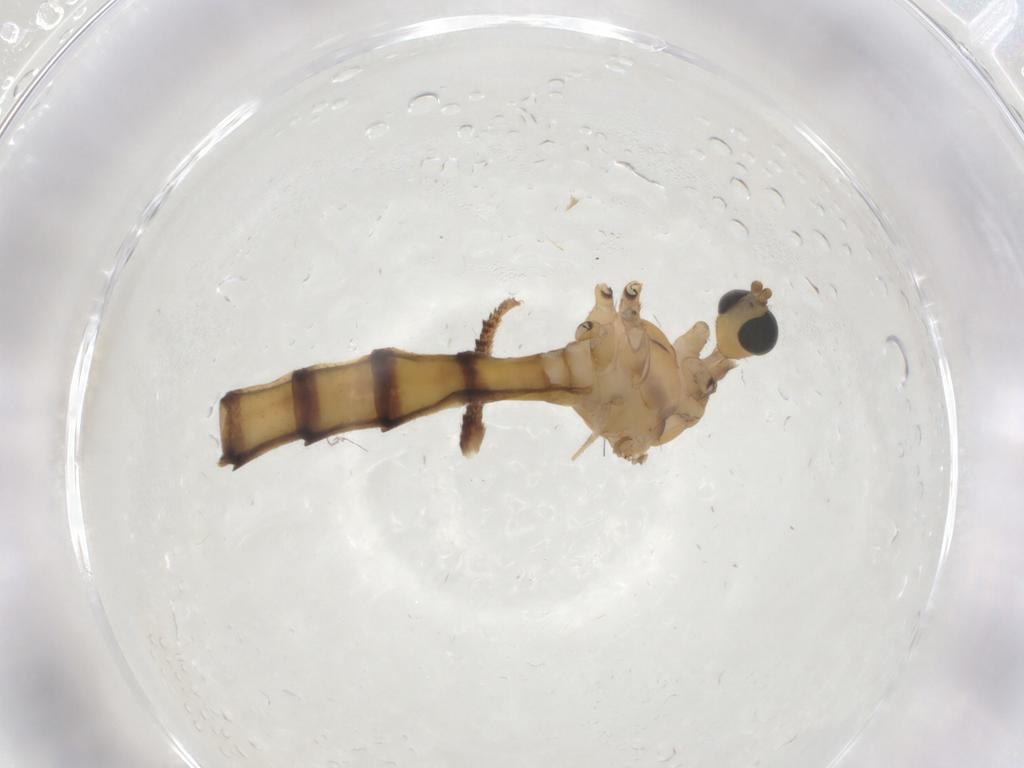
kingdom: Animalia
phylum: Arthropoda
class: Insecta
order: Diptera
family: Limoniidae
